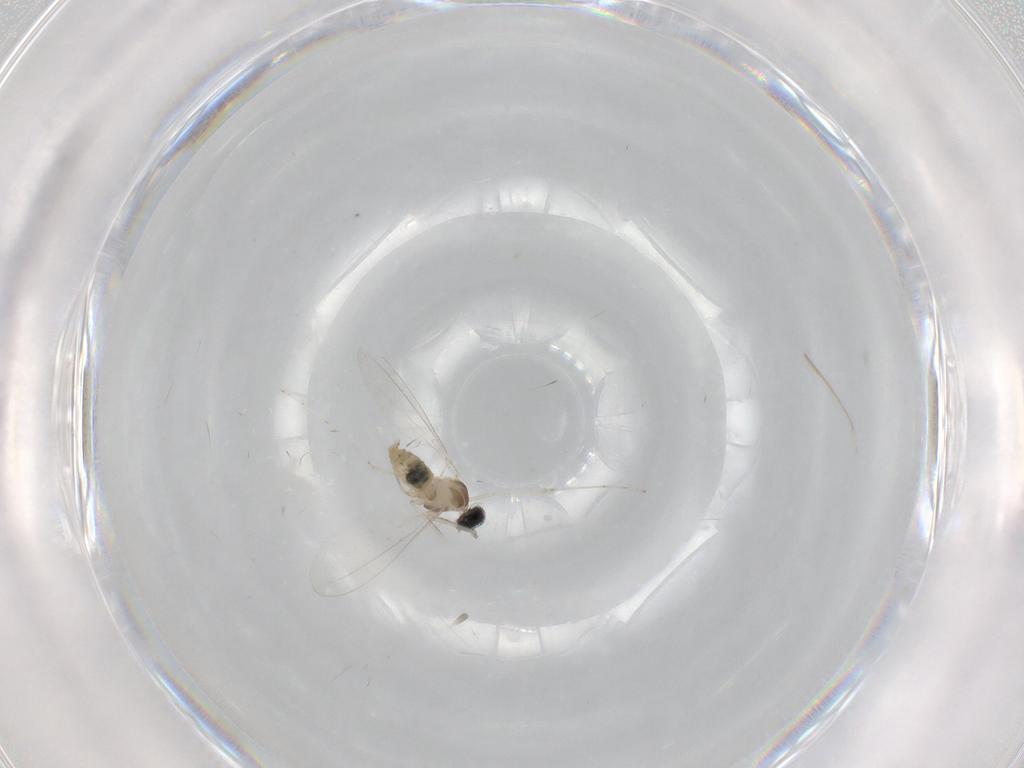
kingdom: Animalia
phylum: Arthropoda
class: Insecta
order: Diptera
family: Cecidomyiidae
